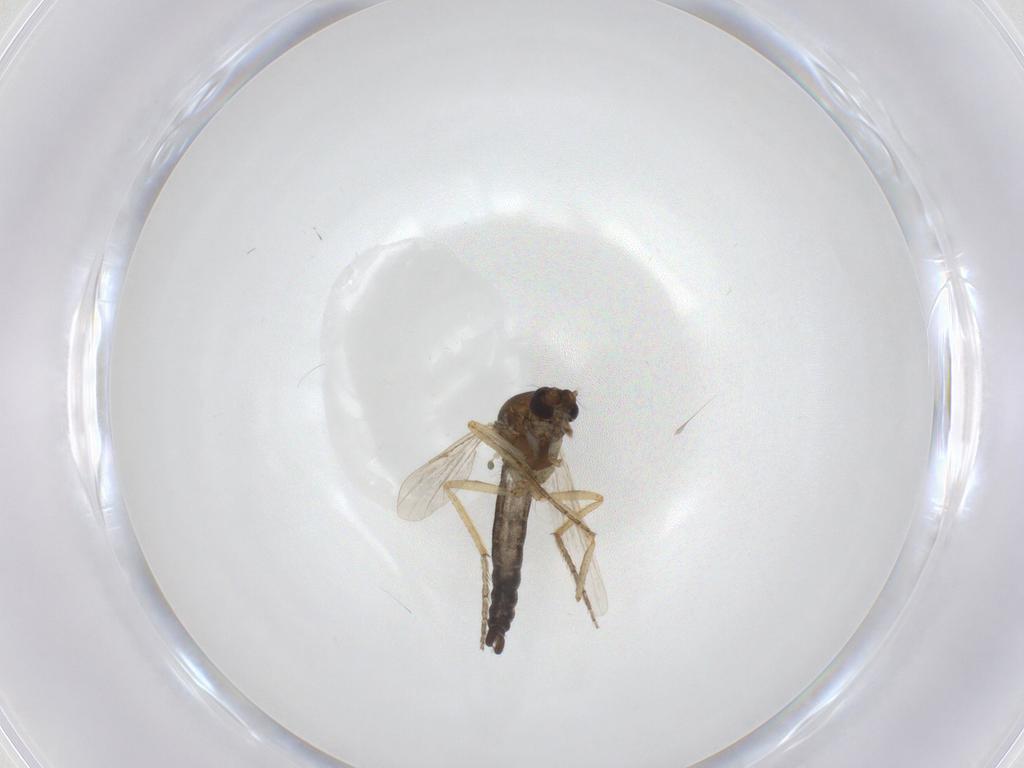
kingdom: Animalia
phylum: Arthropoda
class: Insecta
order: Diptera
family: Ceratopogonidae
